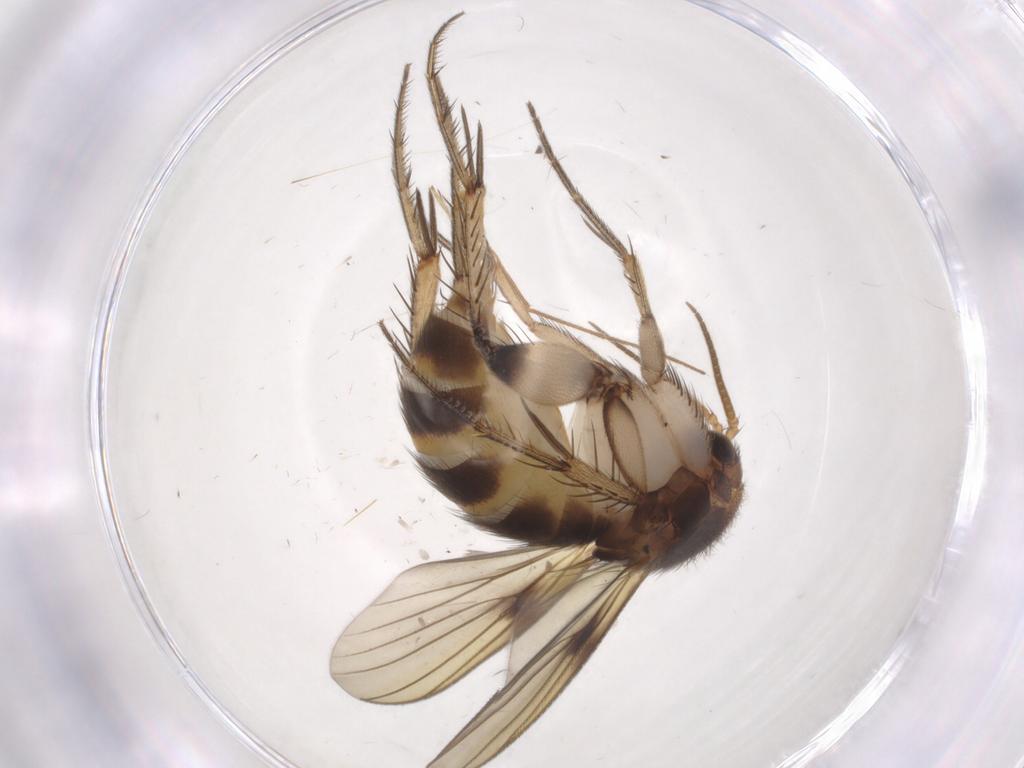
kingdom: Animalia
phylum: Arthropoda
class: Insecta
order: Diptera
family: Mycetophilidae
